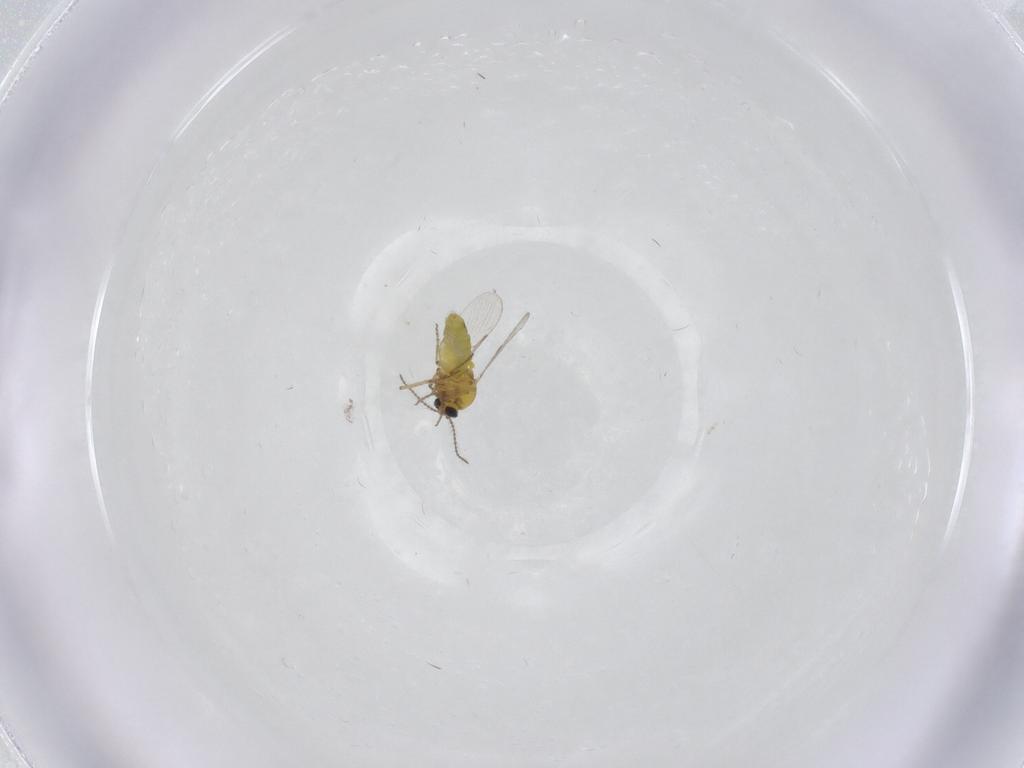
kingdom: Animalia
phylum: Arthropoda
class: Insecta
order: Diptera
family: Ceratopogonidae
